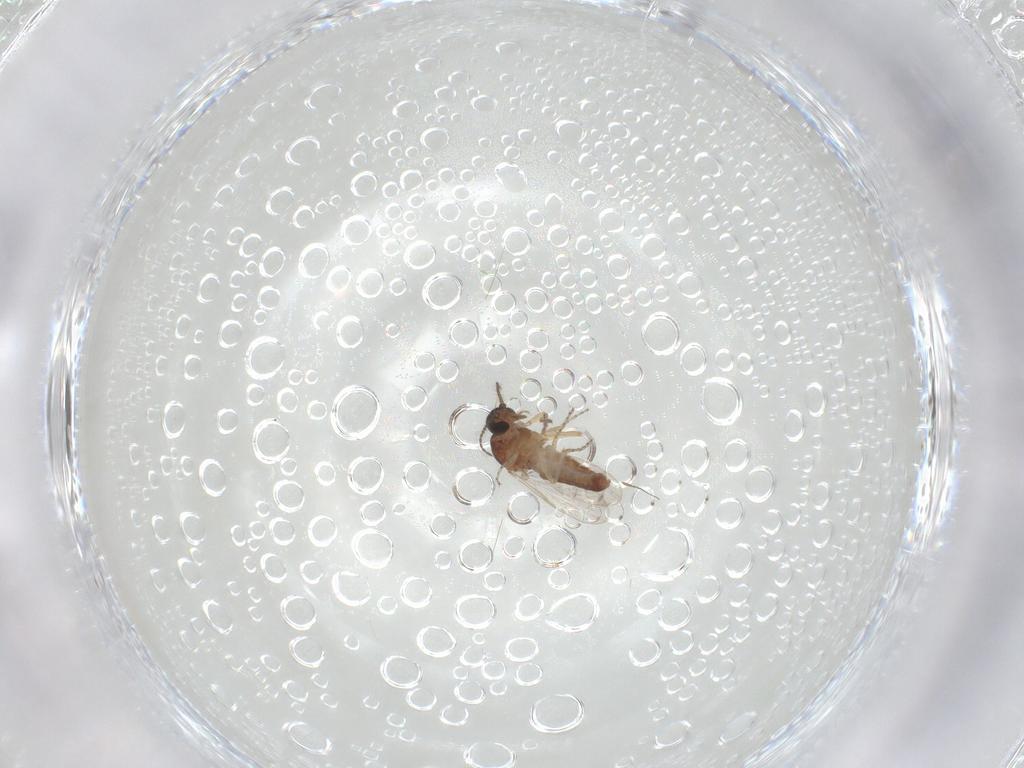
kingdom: Animalia
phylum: Arthropoda
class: Insecta
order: Diptera
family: Ceratopogonidae
